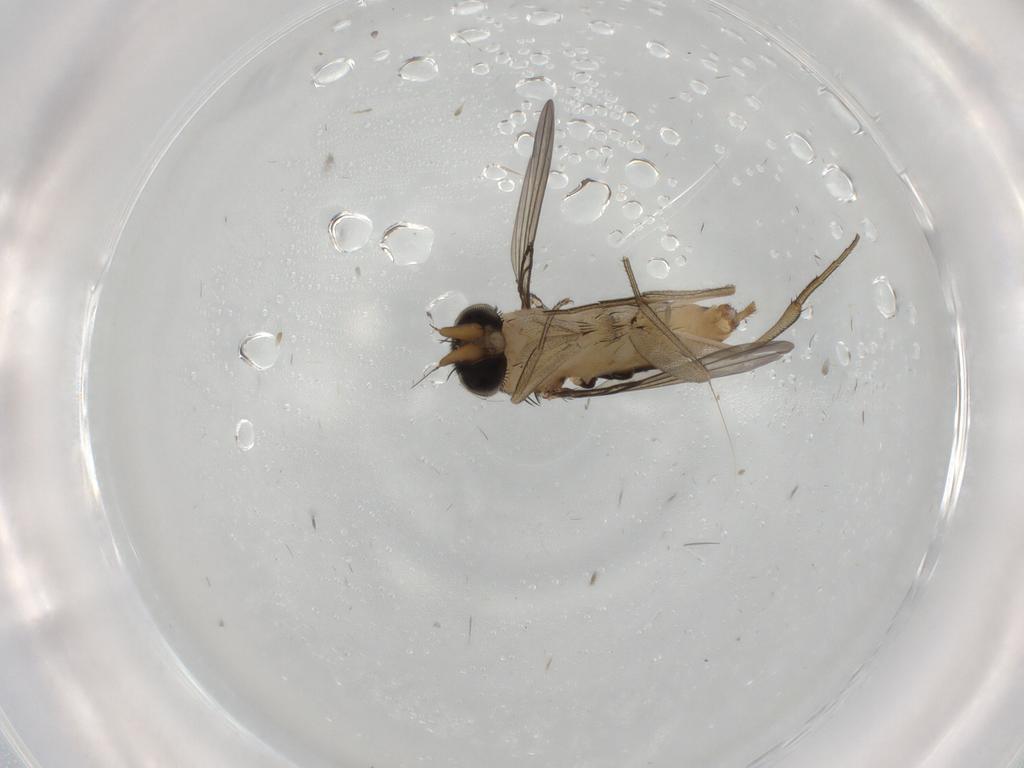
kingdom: Animalia
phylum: Arthropoda
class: Insecta
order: Diptera
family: Phoridae
